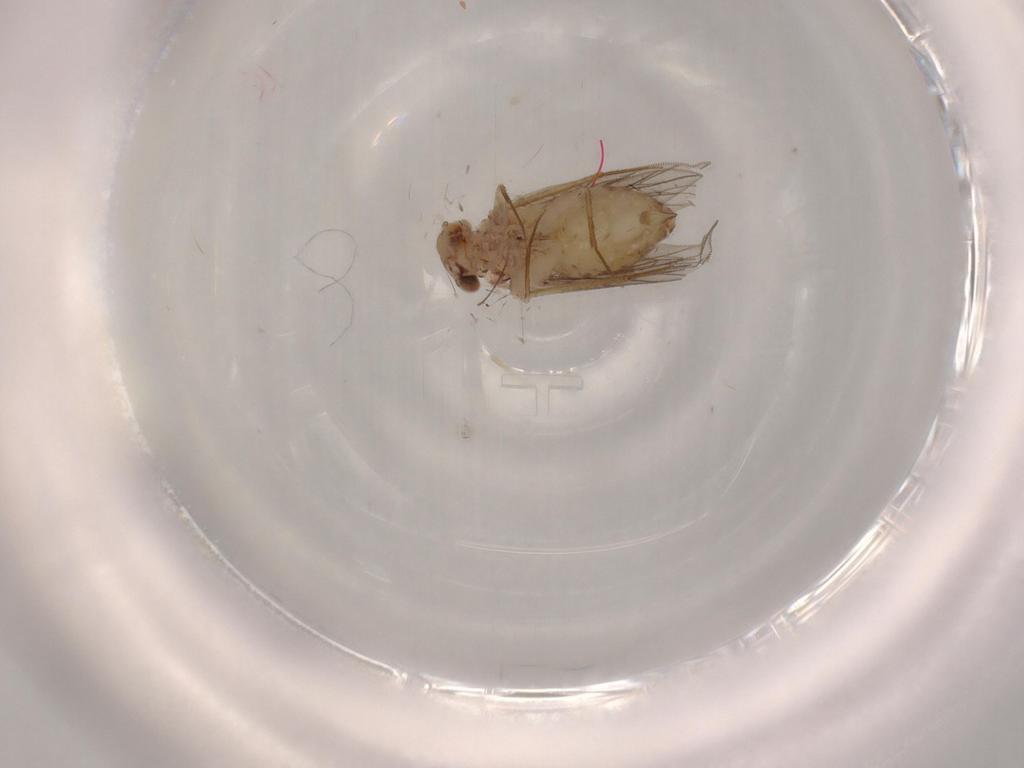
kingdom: Animalia
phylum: Arthropoda
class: Insecta
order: Psocodea
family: Lepidopsocidae
